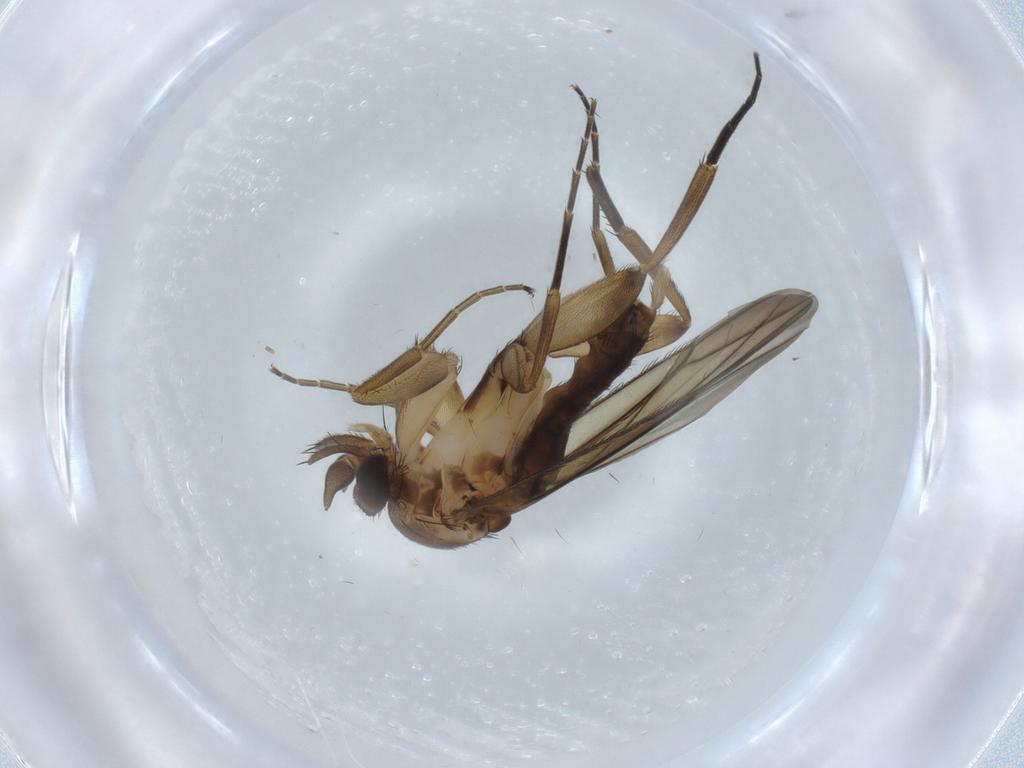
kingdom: Animalia
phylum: Arthropoda
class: Insecta
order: Diptera
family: Phoridae
